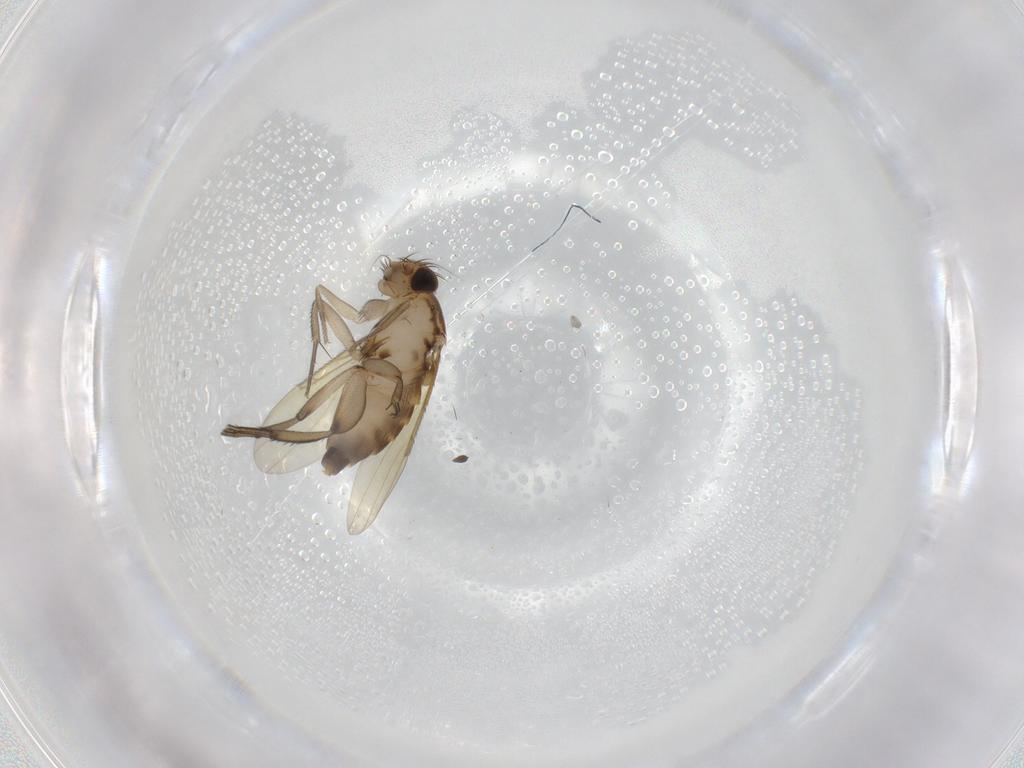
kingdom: Animalia
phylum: Arthropoda
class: Insecta
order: Diptera
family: Phoridae
